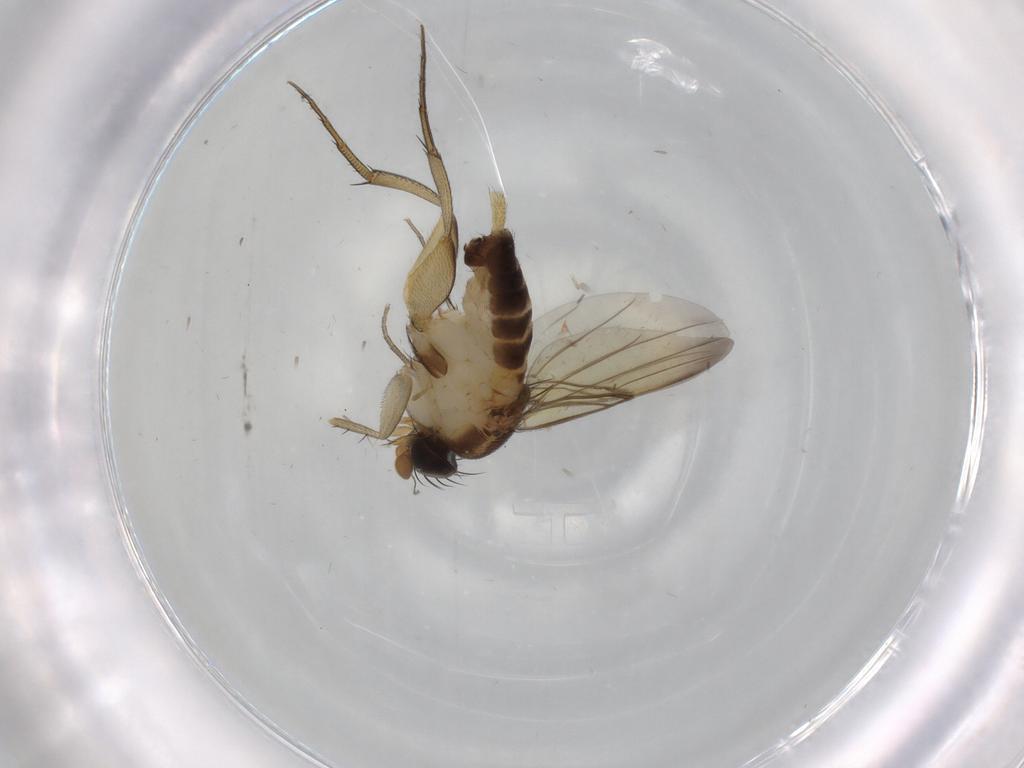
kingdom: Animalia
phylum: Arthropoda
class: Insecta
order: Diptera
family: Phoridae
